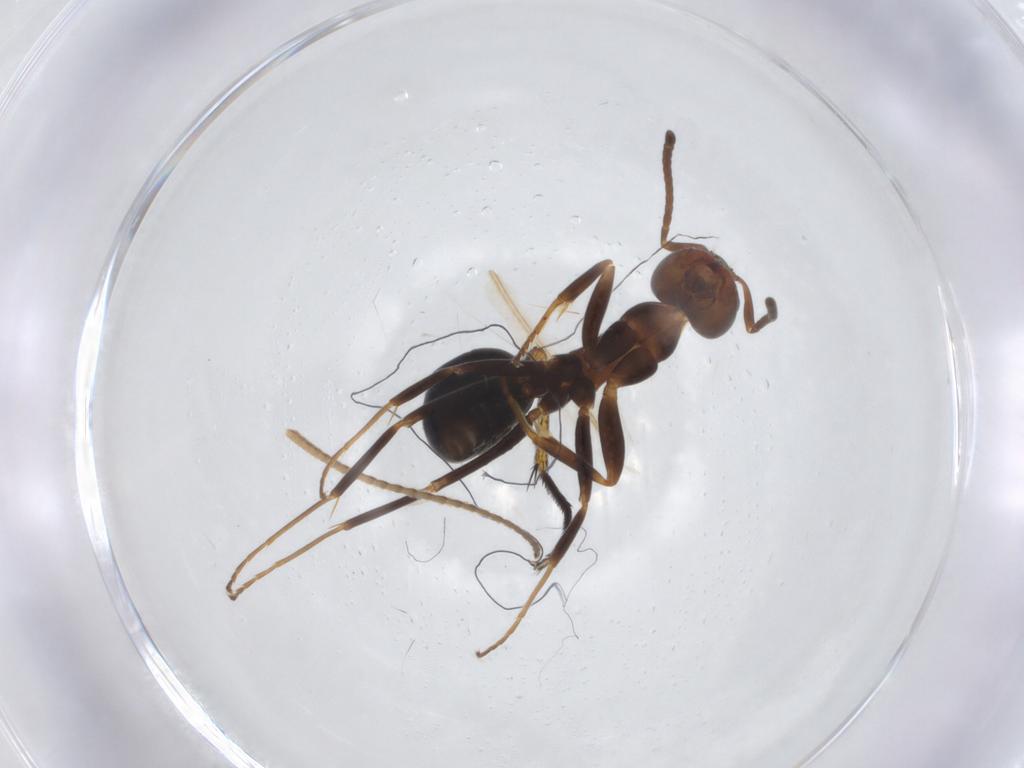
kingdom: Animalia
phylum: Arthropoda
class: Insecta
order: Hymenoptera
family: Formicidae
